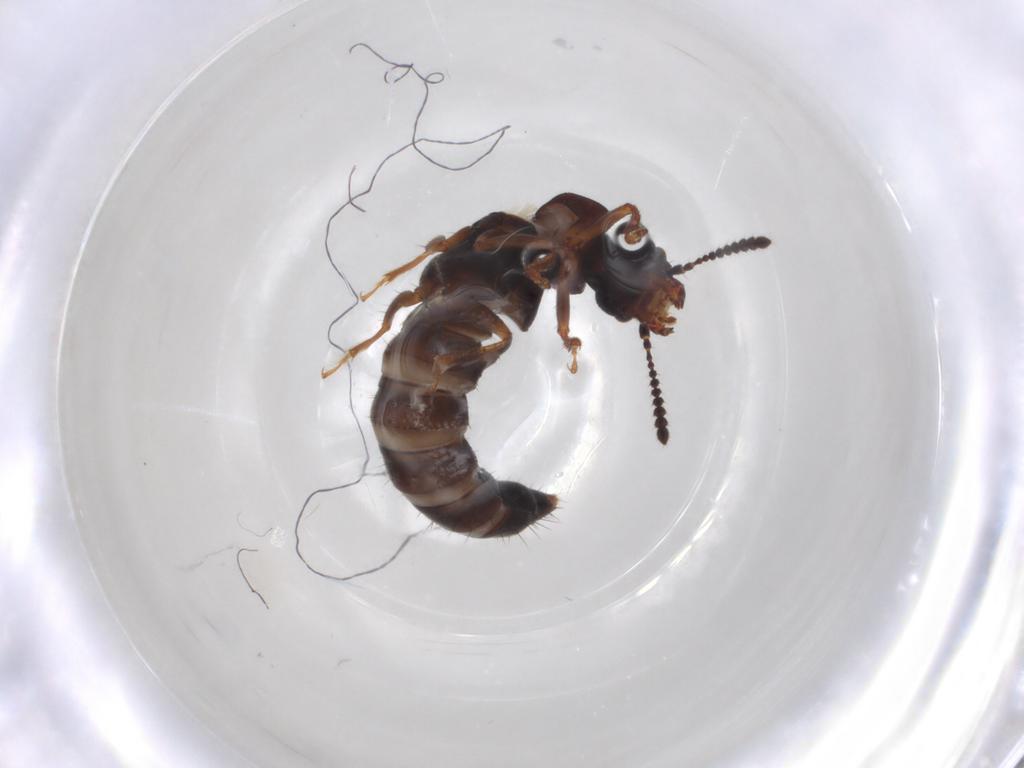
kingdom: Animalia
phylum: Arthropoda
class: Insecta
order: Coleoptera
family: Staphylinidae
